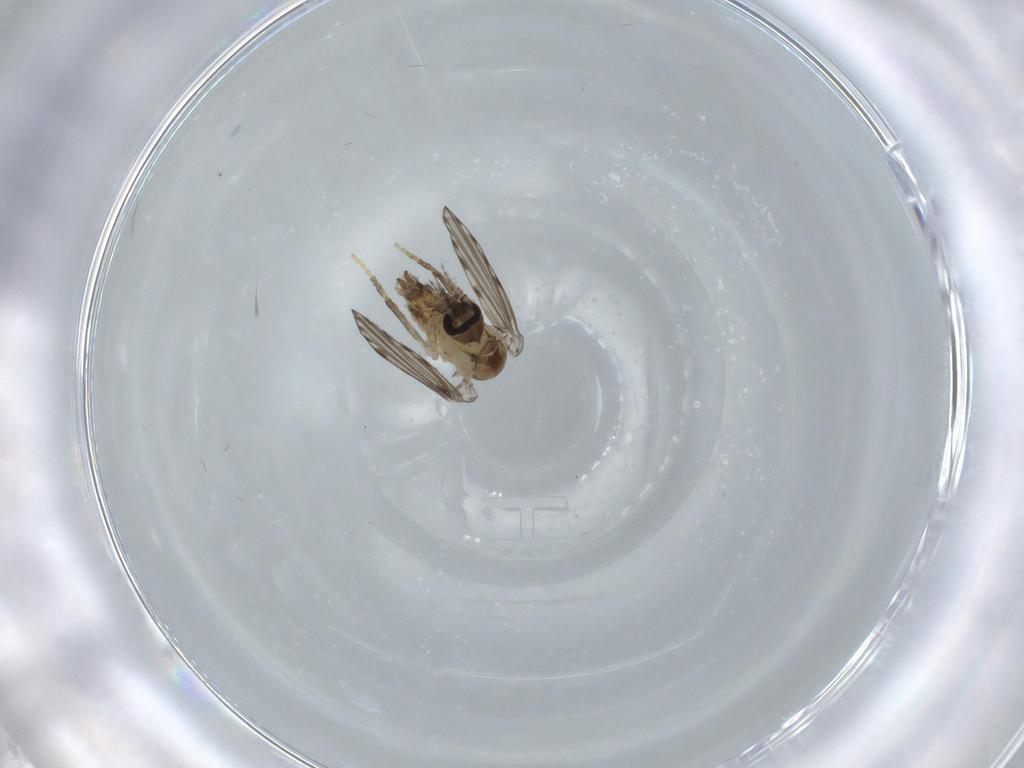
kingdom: Animalia
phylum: Arthropoda
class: Insecta
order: Diptera
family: Psychodidae
